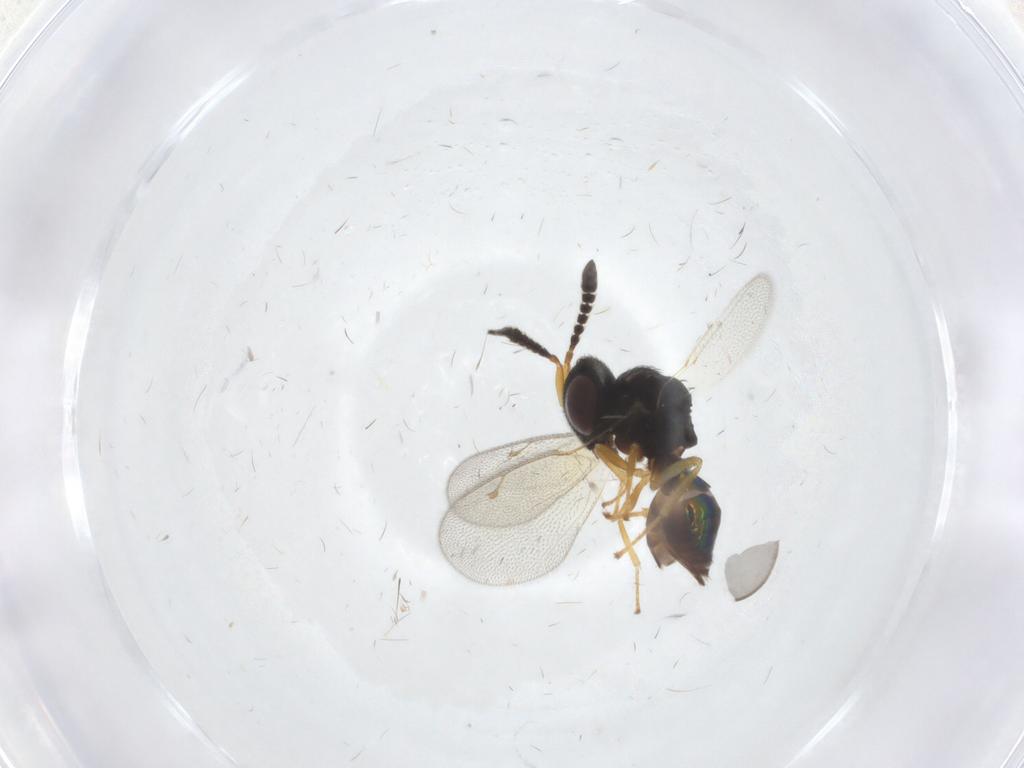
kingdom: Animalia
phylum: Arthropoda
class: Insecta
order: Hymenoptera
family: Pteromalidae
